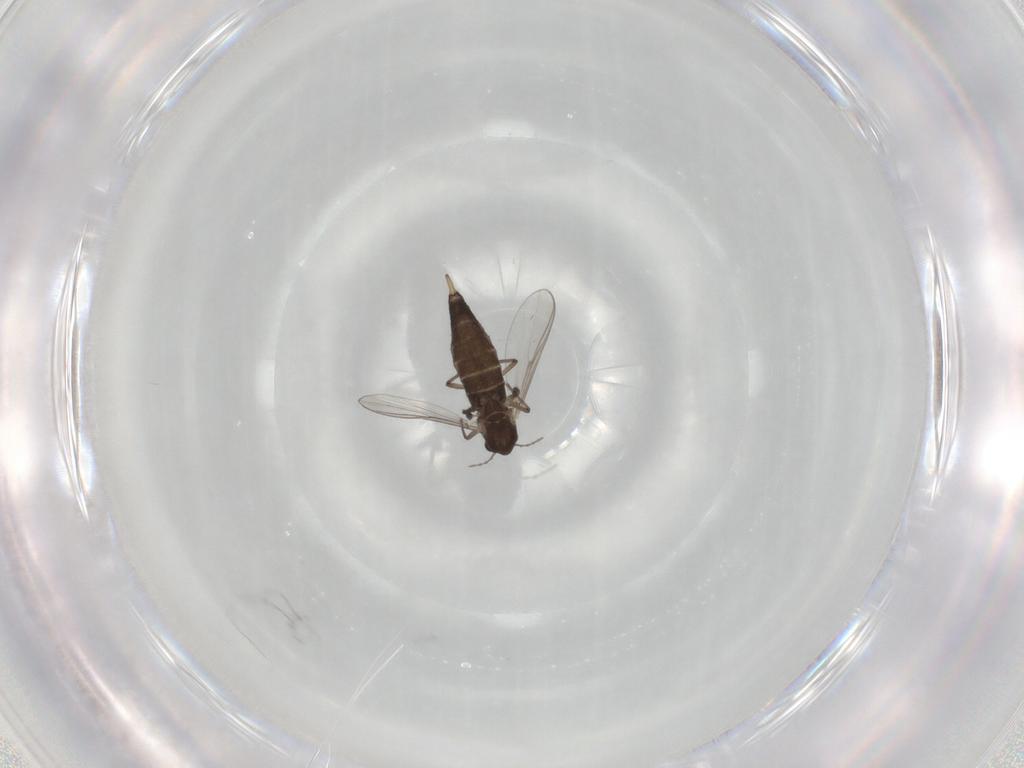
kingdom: Animalia
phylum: Arthropoda
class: Insecta
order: Diptera
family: Chironomidae
